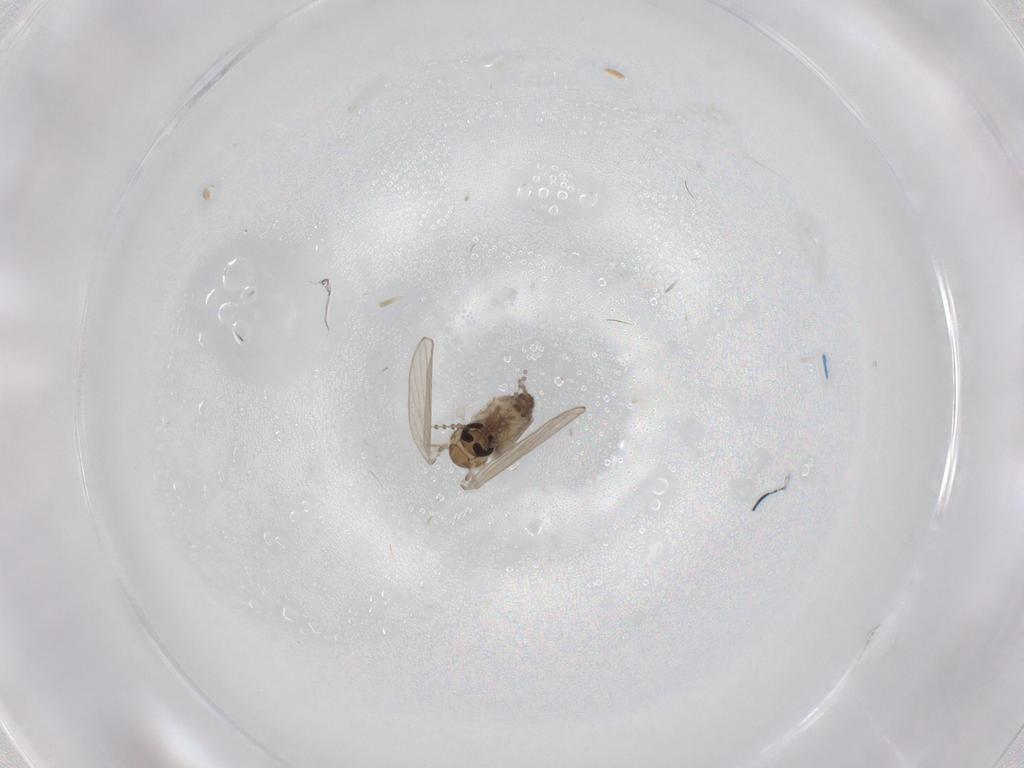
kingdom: Animalia
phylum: Arthropoda
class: Insecta
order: Diptera
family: Psychodidae
